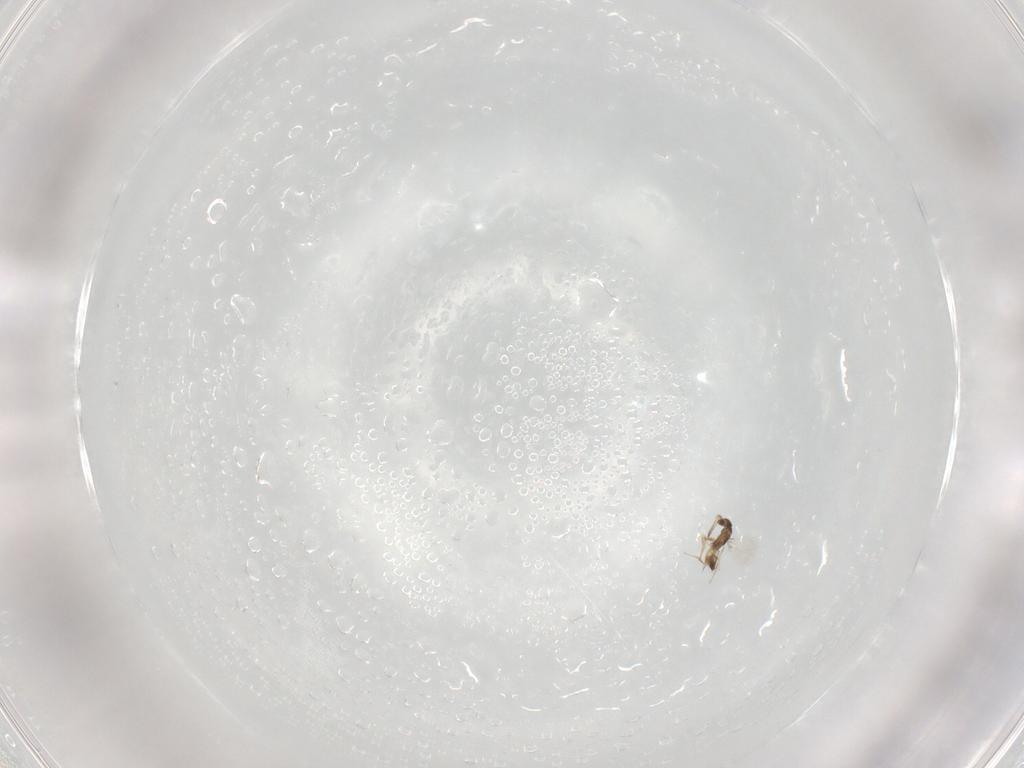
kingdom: Animalia
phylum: Arthropoda
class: Insecta
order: Hymenoptera
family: Mymaridae
